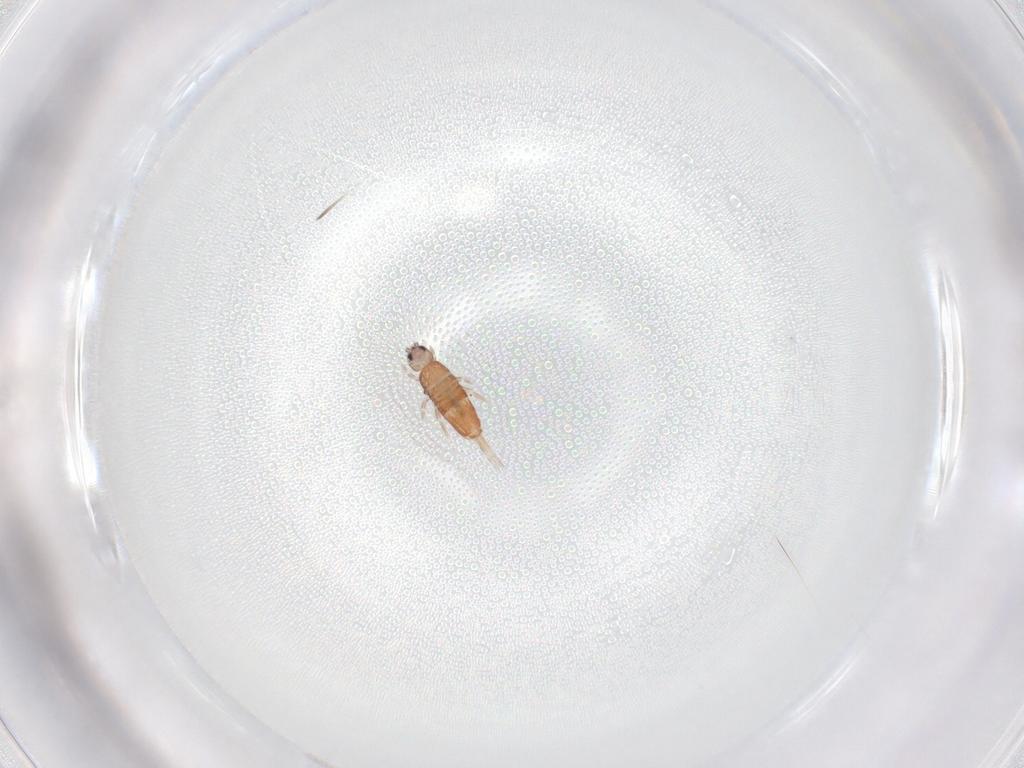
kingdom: Animalia
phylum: Arthropoda
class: Collembola
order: Entomobryomorpha
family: Entomobryidae
